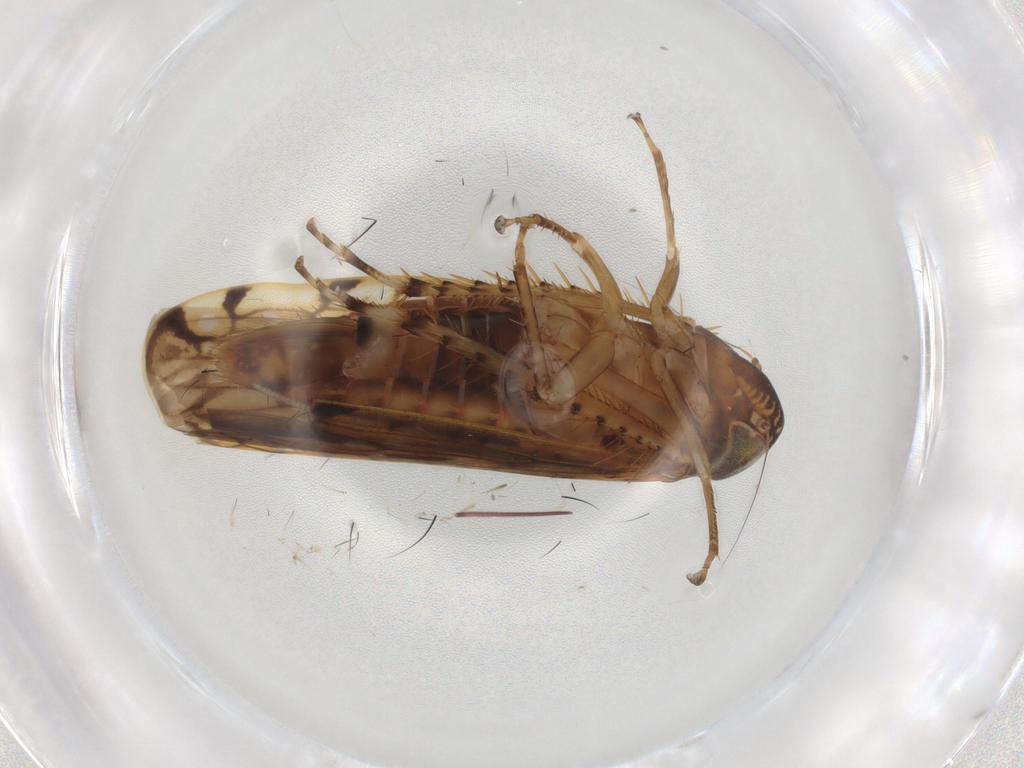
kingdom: Animalia
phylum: Arthropoda
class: Insecta
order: Hemiptera
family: Cicadellidae
